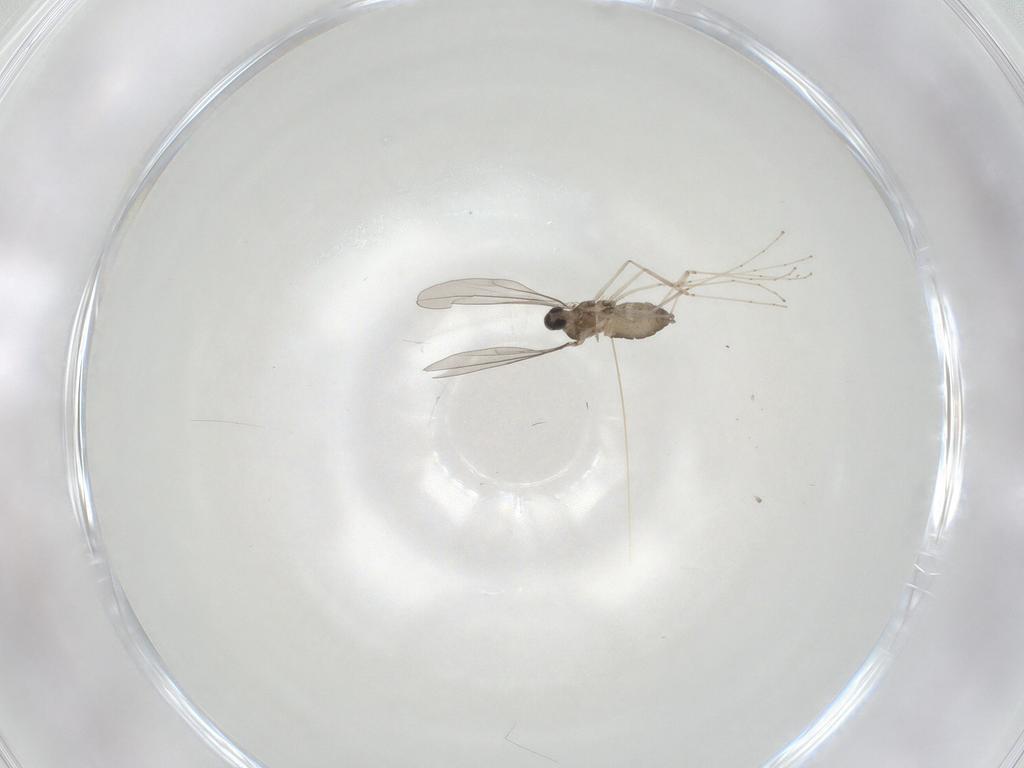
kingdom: Animalia
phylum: Arthropoda
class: Insecta
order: Diptera
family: Cecidomyiidae
